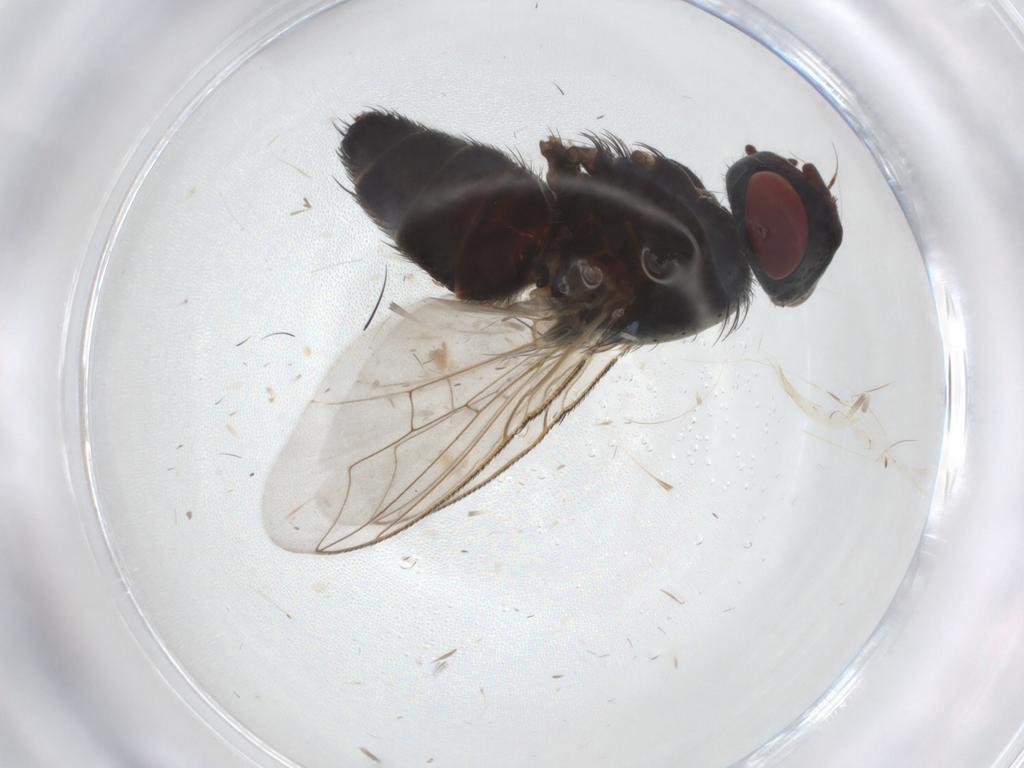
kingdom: Animalia
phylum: Arthropoda
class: Insecta
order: Diptera
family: Sarcophagidae
